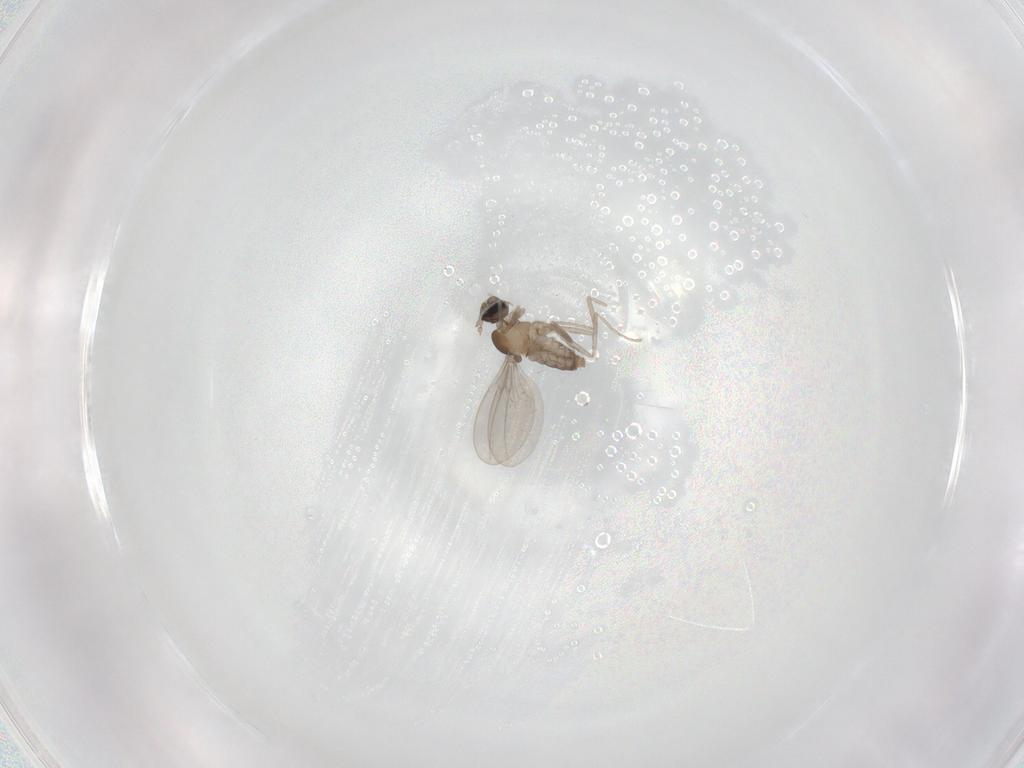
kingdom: Animalia
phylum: Arthropoda
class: Insecta
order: Diptera
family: Cecidomyiidae
